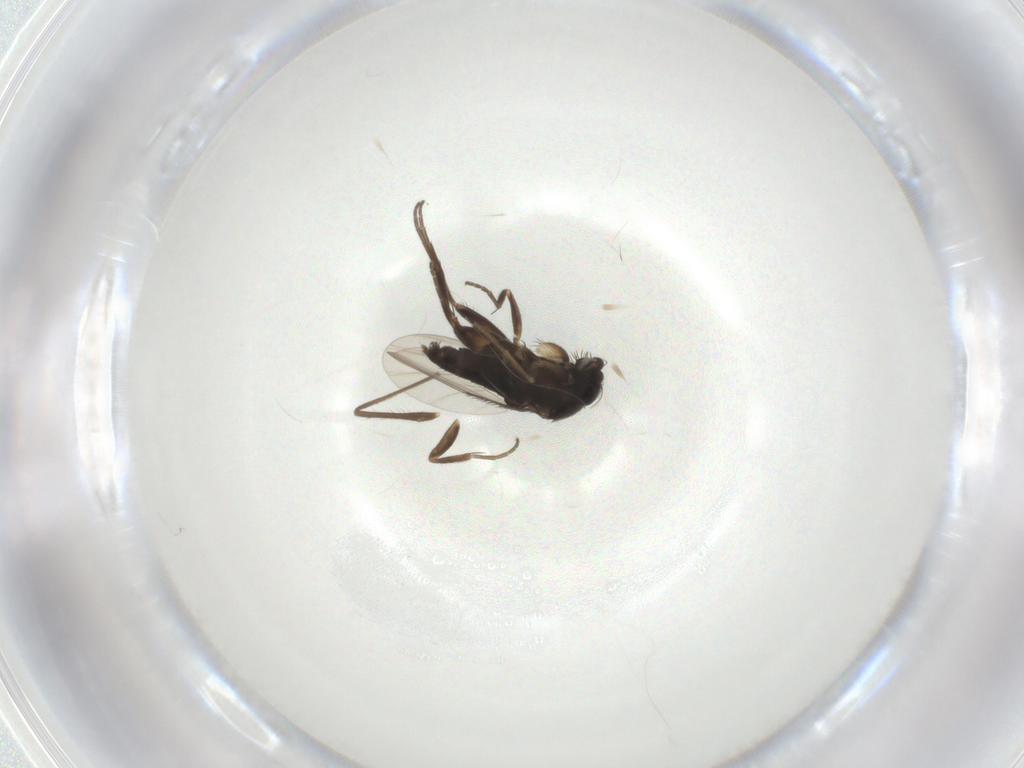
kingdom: Animalia
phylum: Arthropoda
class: Insecta
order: Diptera
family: Phoridae
